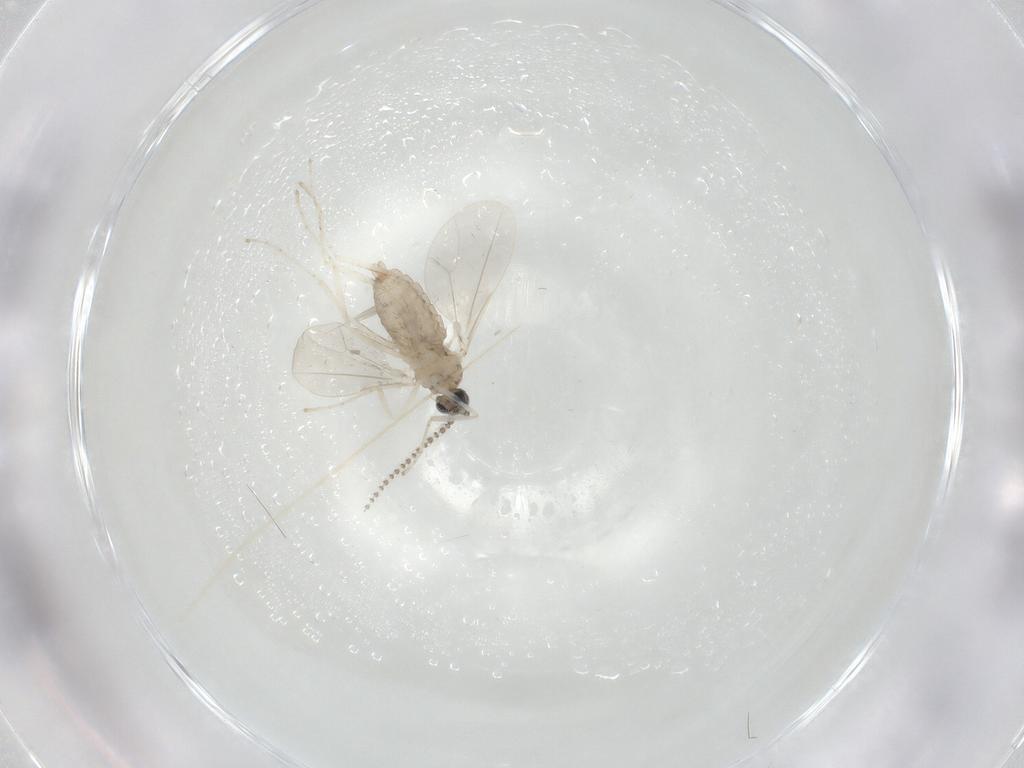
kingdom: Animalia
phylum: Arthropoda
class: Insecta
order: Diptera
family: Cecidomyiidae
